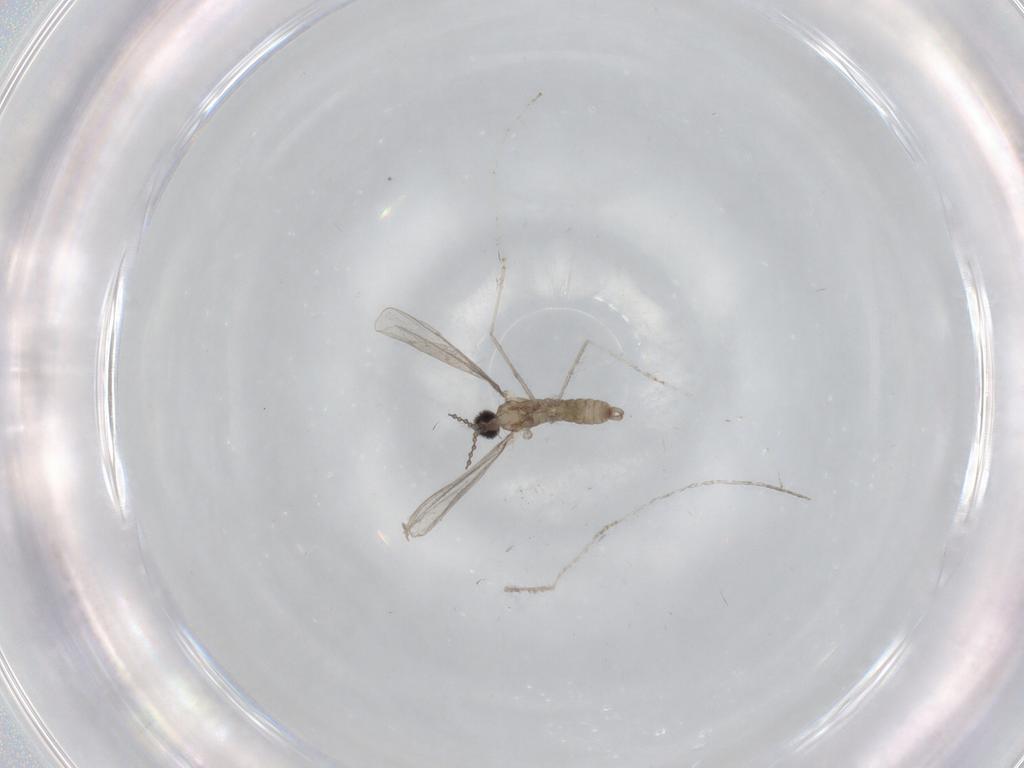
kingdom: Animalia
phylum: Arthropoda
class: Insecta
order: Diptera
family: Cecidomyiidae
